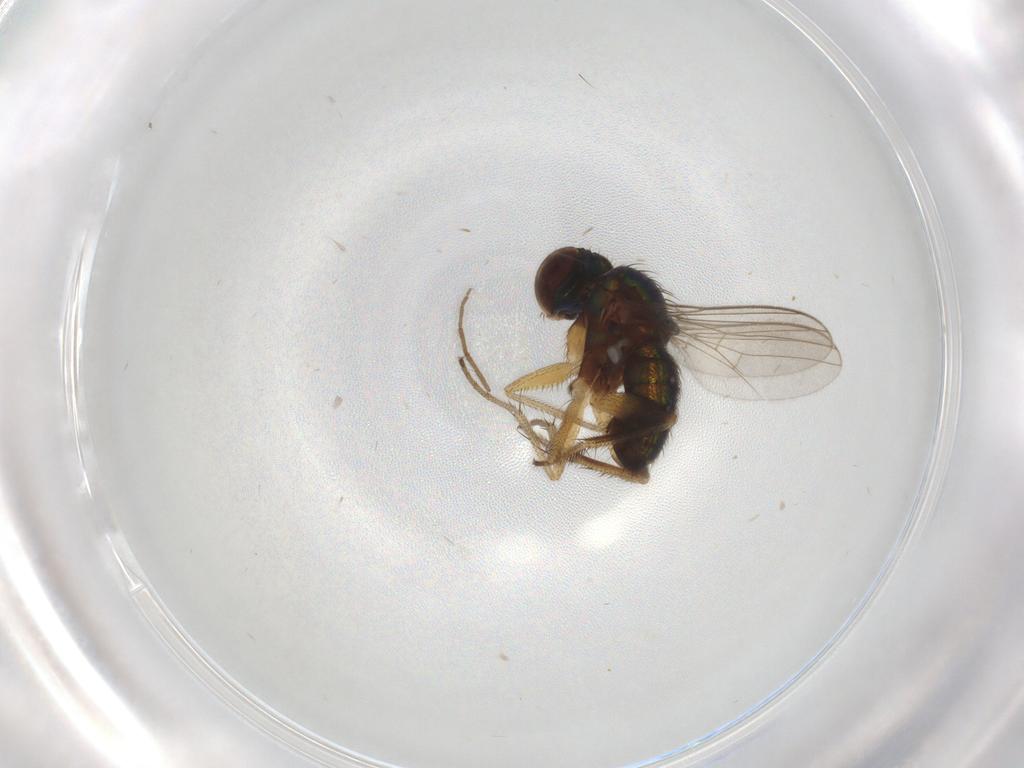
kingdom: Animalia
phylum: Arthropoda
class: Insecta
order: Diptera
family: Dolichopodidae
